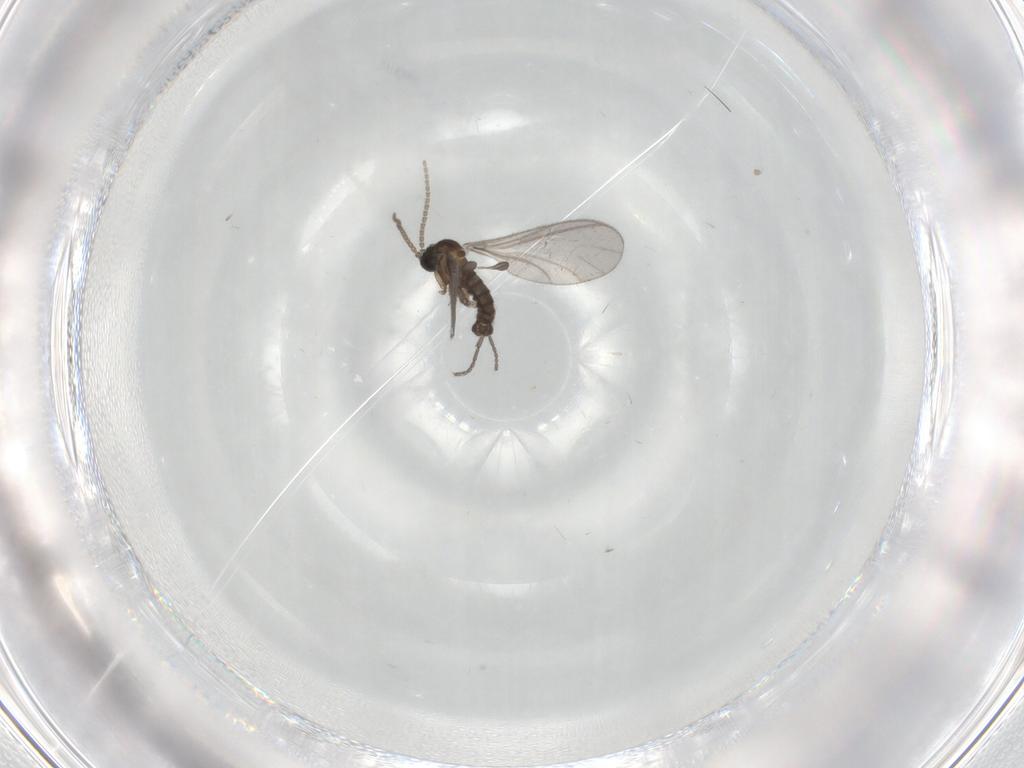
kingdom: Animalia
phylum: Arthropoda
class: Insecta
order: Diptera
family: Sciaridae
